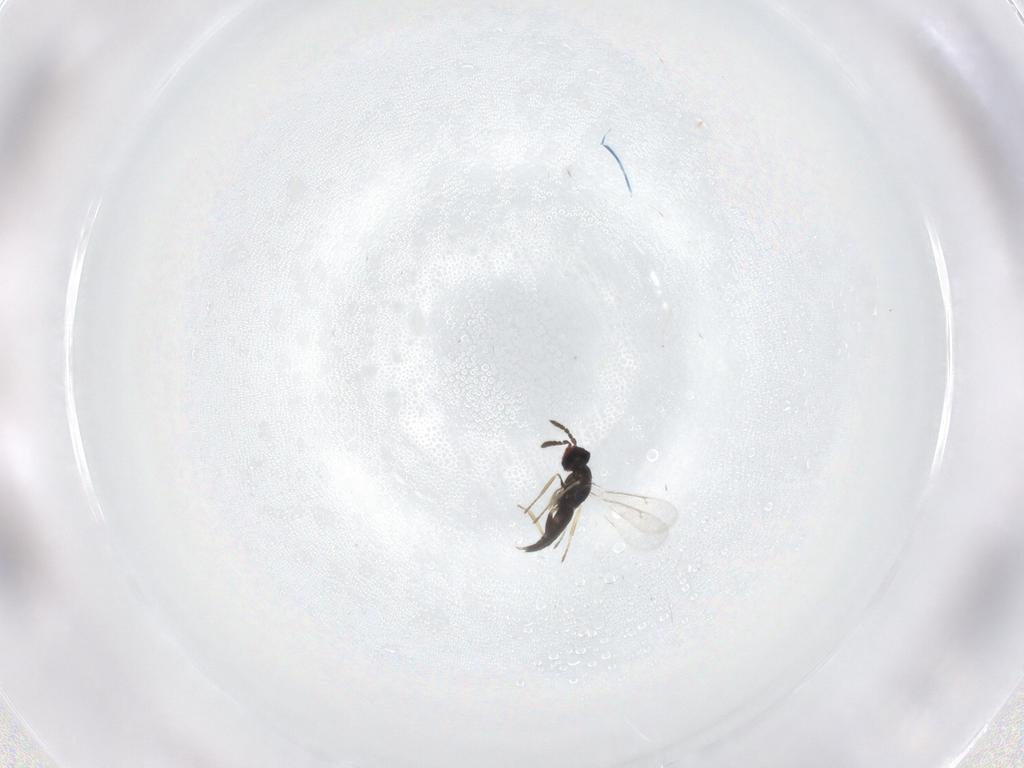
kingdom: Animalia
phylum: Arthropoda
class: Insecta
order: Hymenoptera
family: Eulophidae
